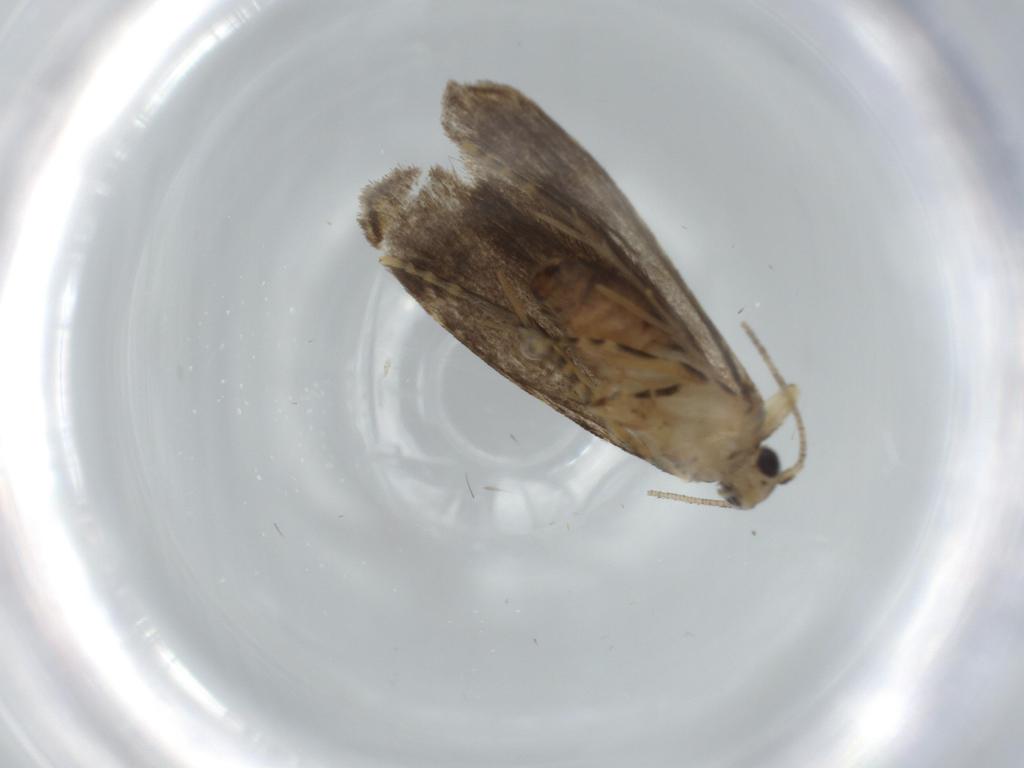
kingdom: Animalia
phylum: Arthropoda
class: Insecta
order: Lepidoptera
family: Tineidae
